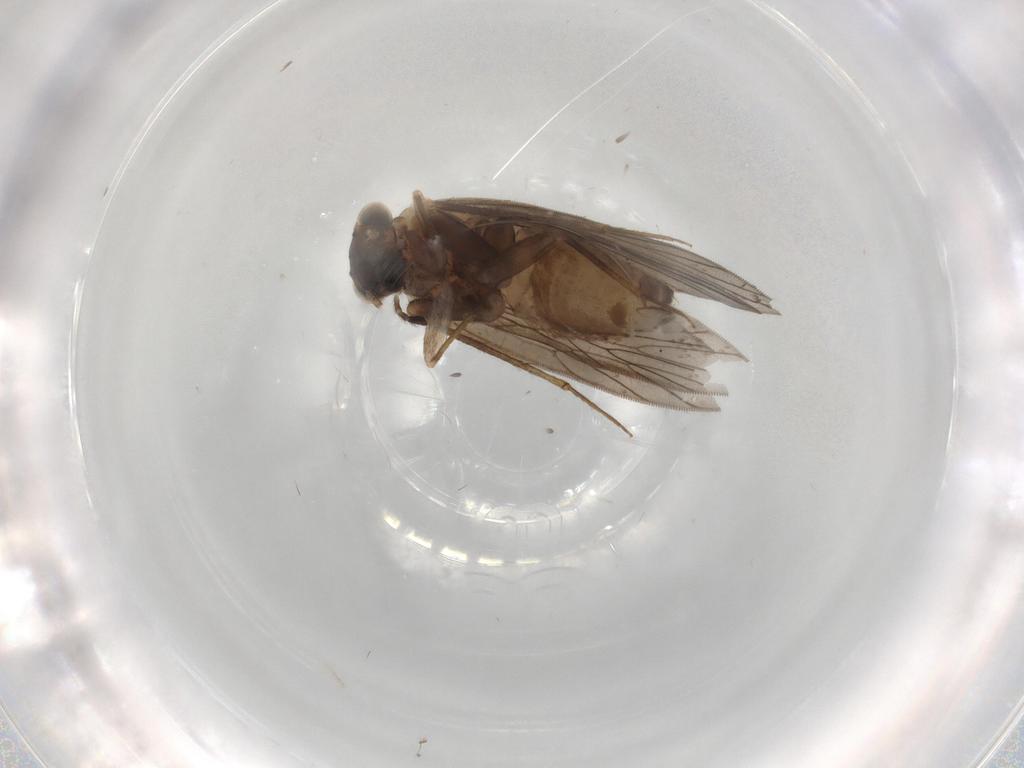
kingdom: Animalia
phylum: Arthropoda
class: Insecta
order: Psocodea
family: Lepidopsocidae
